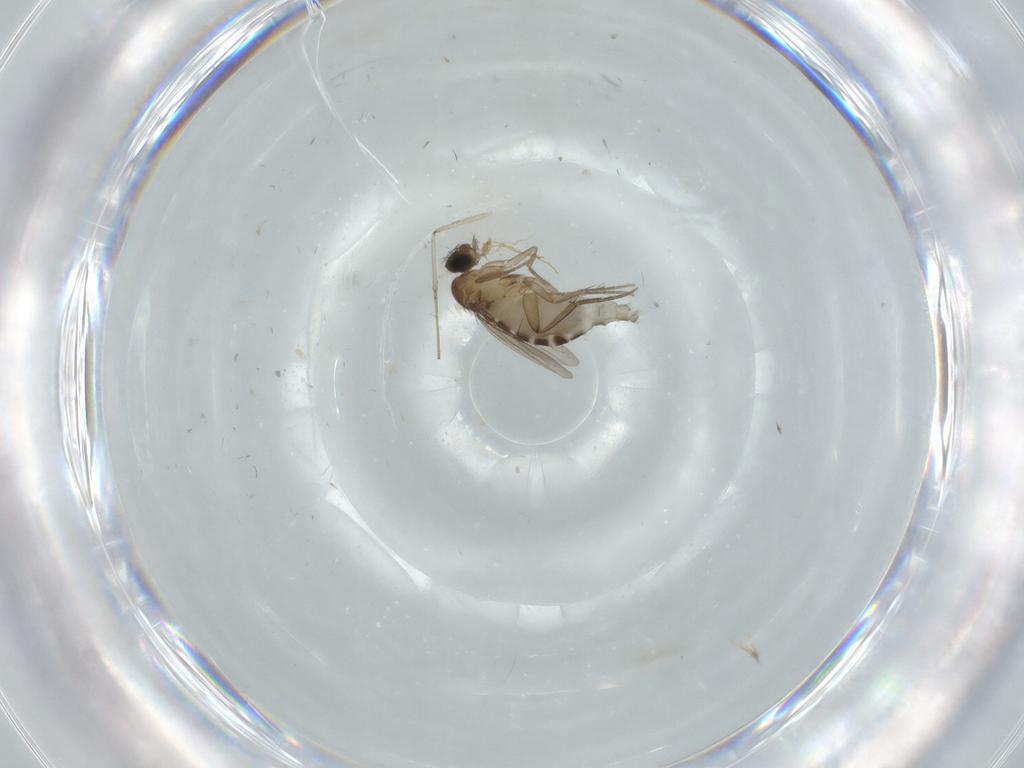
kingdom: Animalia
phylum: Arthropoda
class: Insecta
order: Diptera
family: Phoridae
